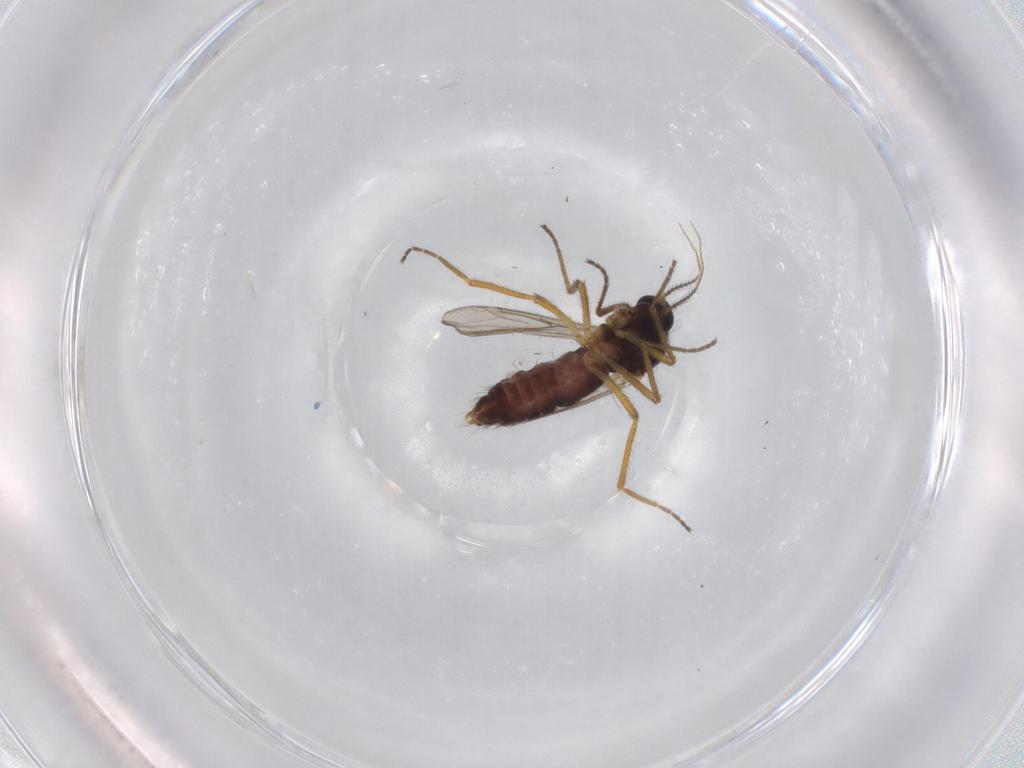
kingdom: Animalia
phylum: Arthropoda
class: Insecta
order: Diptera
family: Ceratopogonidae
